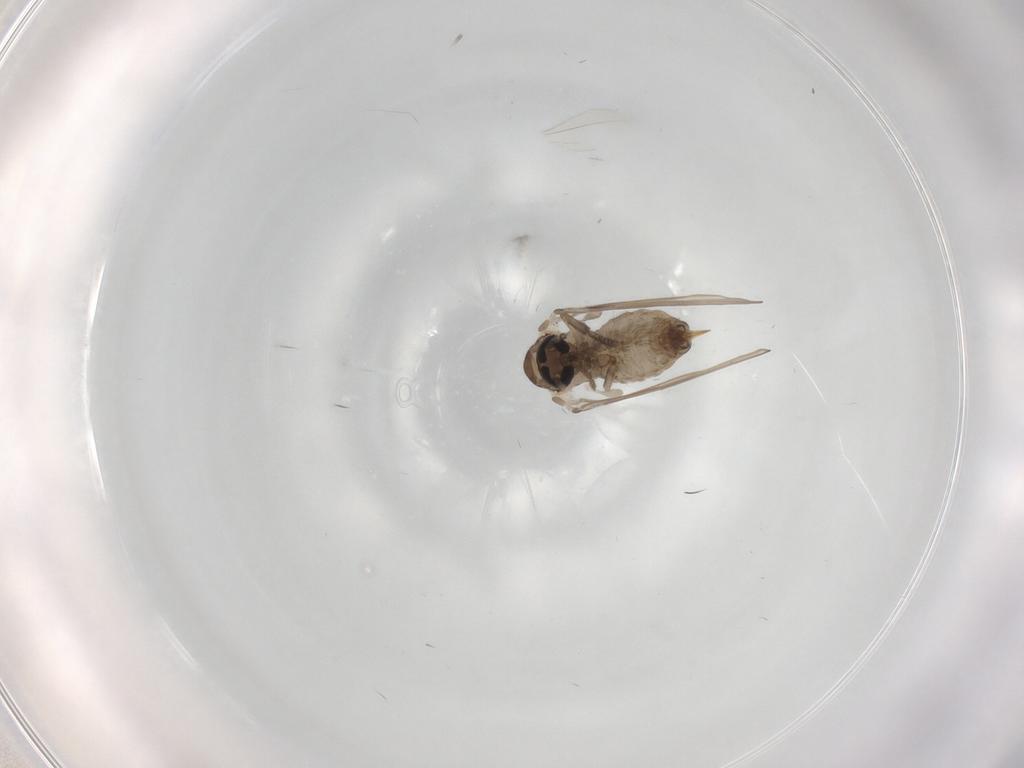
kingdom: Animalia
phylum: Arthropoda
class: Insecta
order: Diptera
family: Psychodidae
